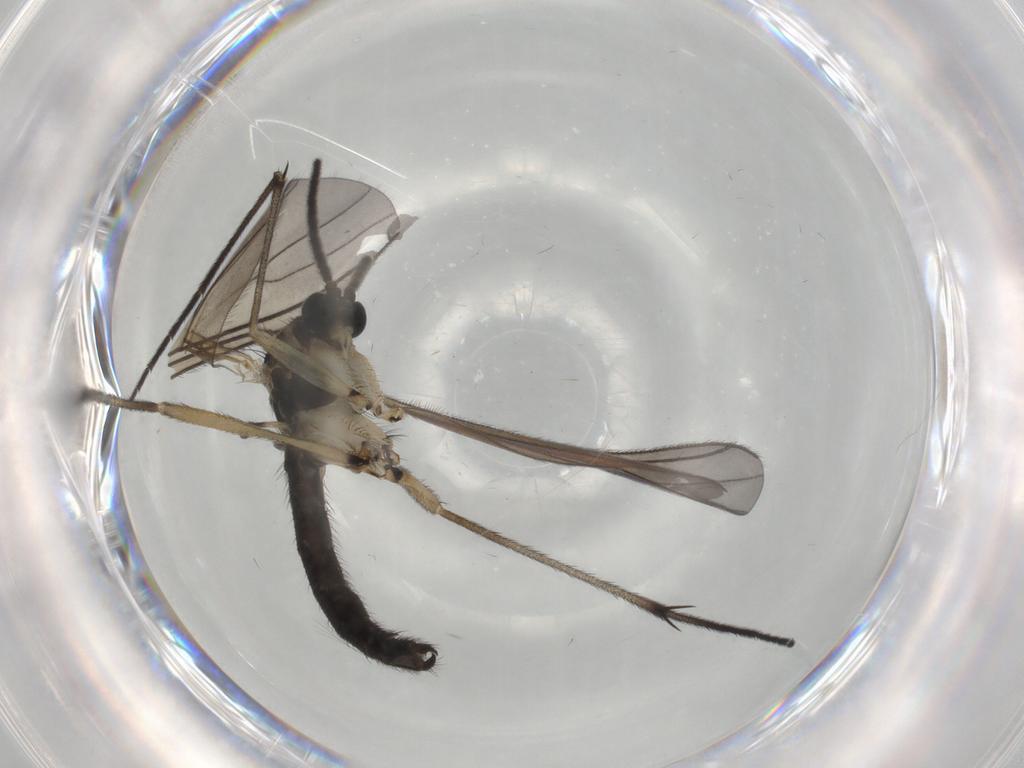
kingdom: Animalia
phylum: Arthropoda
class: Insecta
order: Diptera
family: Sciaridae
